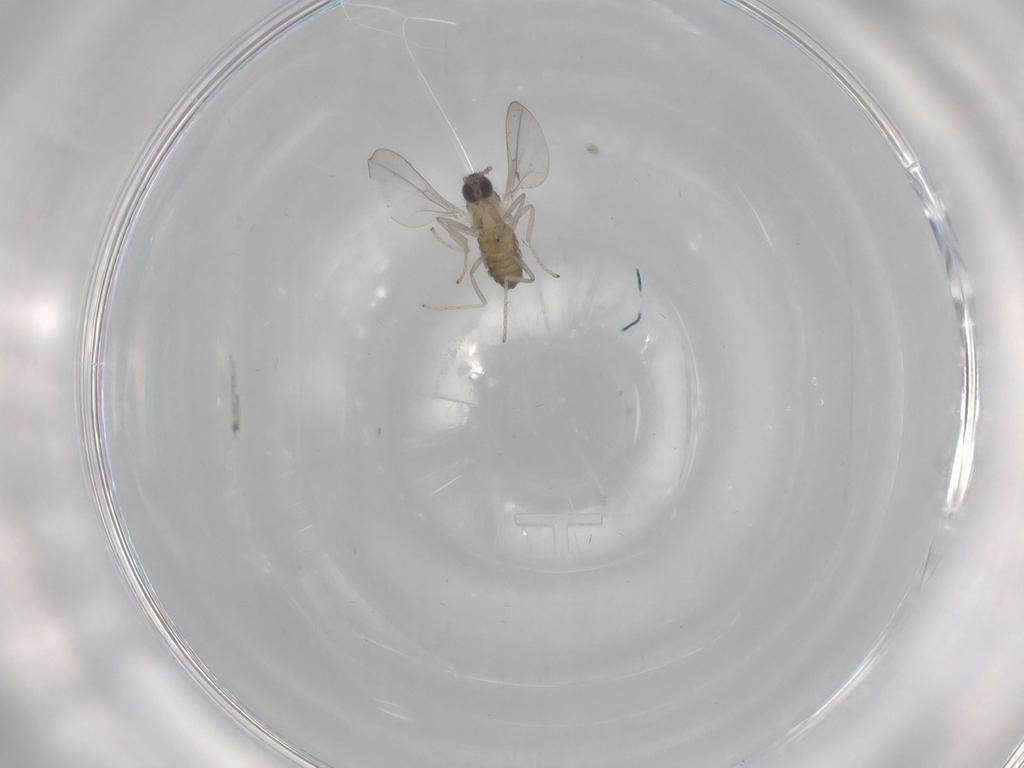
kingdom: Animalia
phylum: Arthropoda
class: Insecta
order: Diptera
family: Cecidomyiidae
